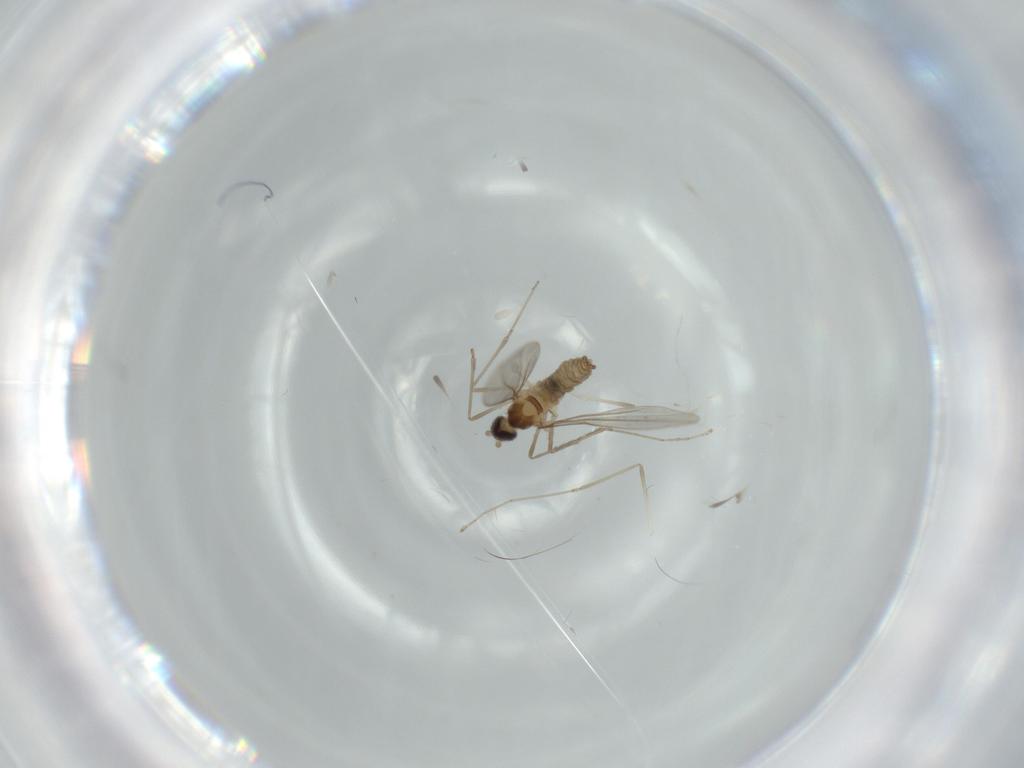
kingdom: Animalia
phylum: Arthropoda
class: Insecta
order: Diptera
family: Cecidomyiidae
